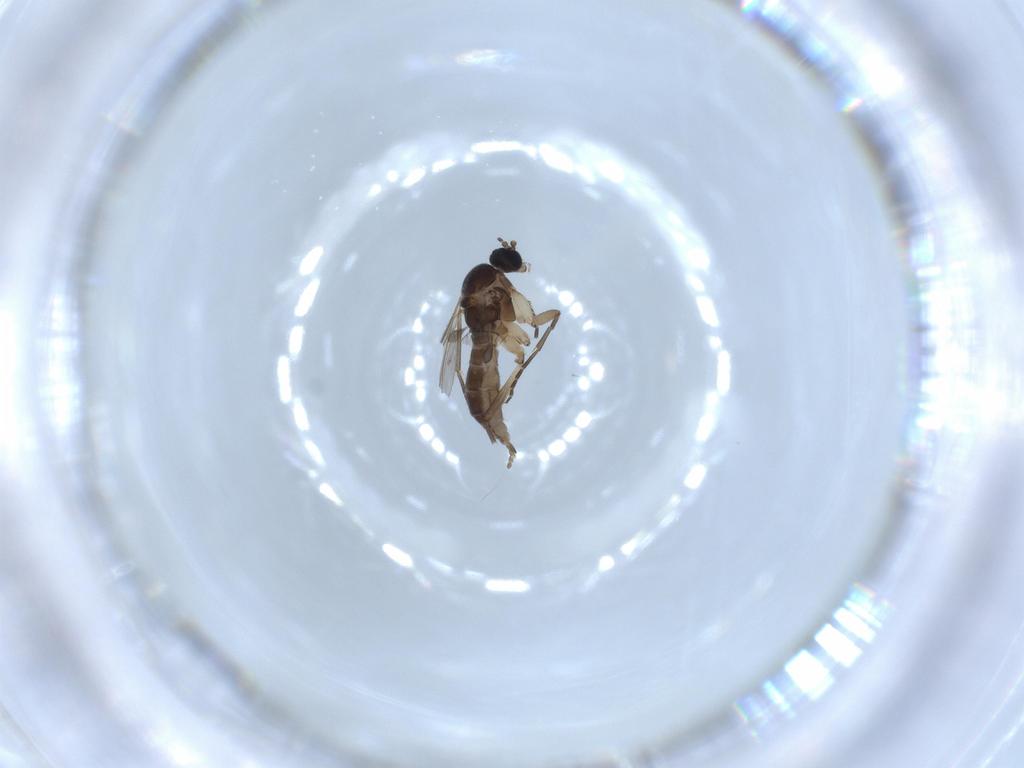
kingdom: Animalia
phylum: Arthropoda
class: Insecta
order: Diptera
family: Sciaridae
